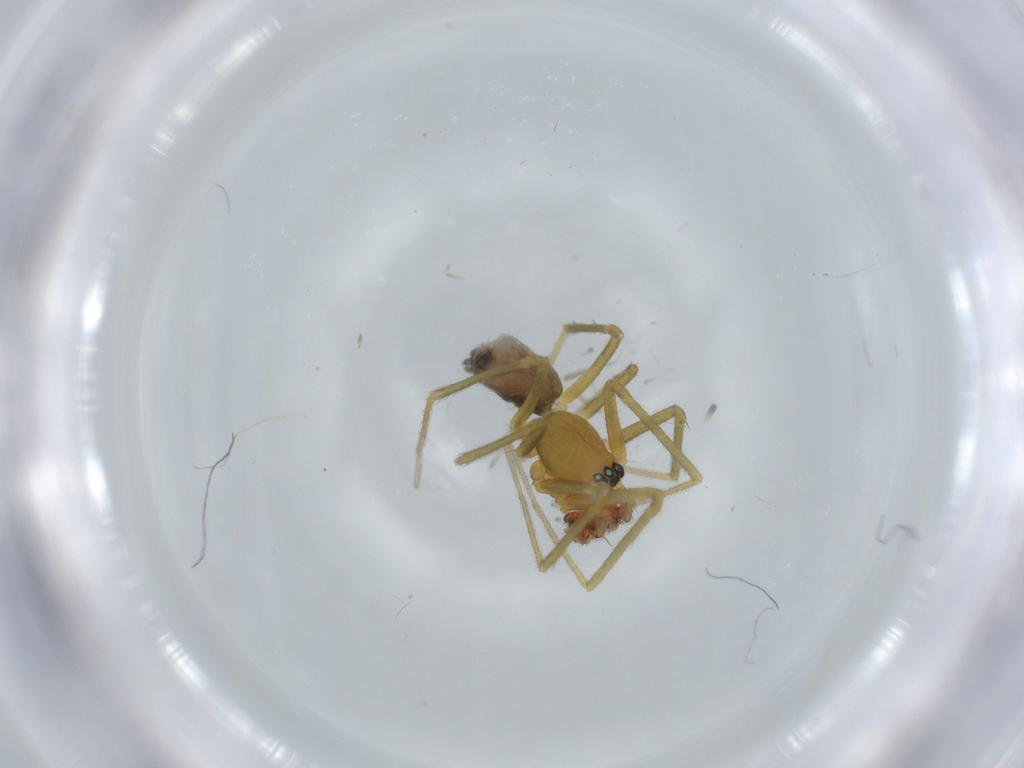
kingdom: Animalia
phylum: Arthropoda
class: Arachnida
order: Araneae
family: Linyphiidae
